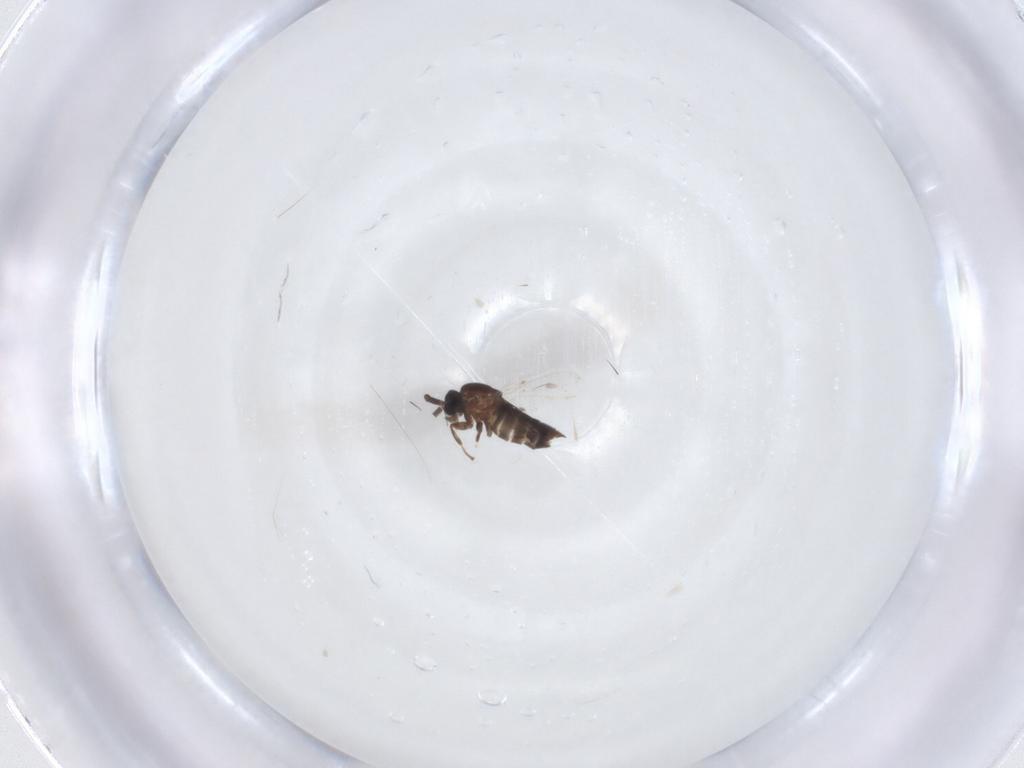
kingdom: Animalia
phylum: Arthropoda
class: Insecta
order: Diptera
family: Scatopsidae
